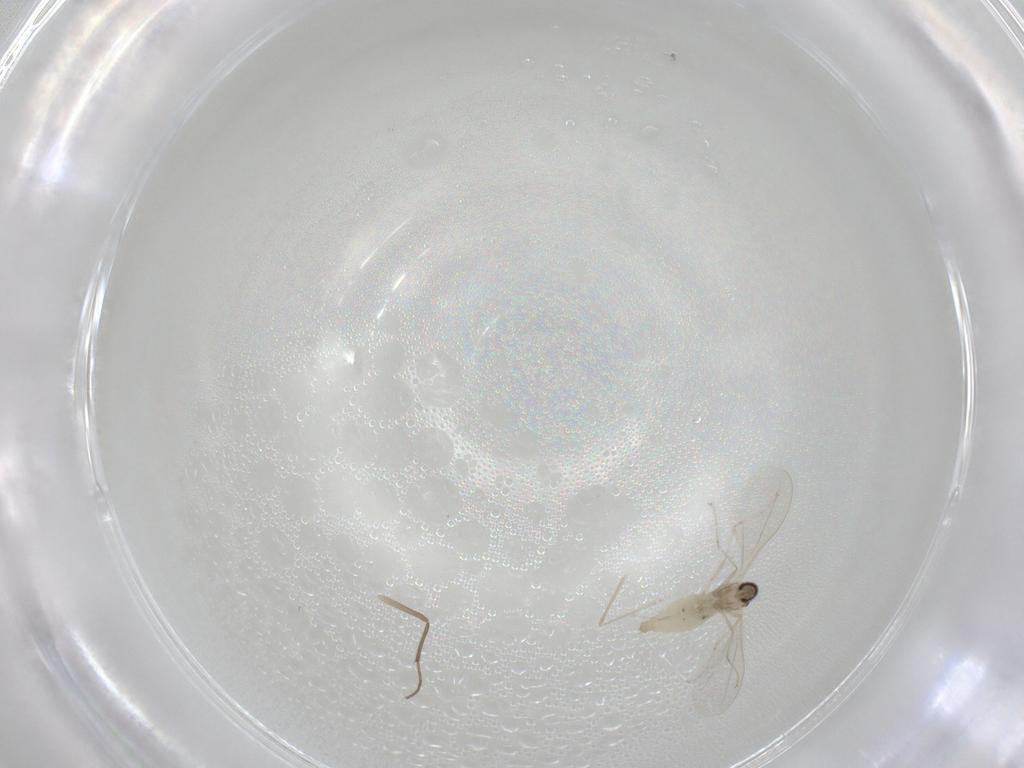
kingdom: Animalia
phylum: Arthropoda
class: Insecta
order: Diptera
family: Cecidomyiidae
